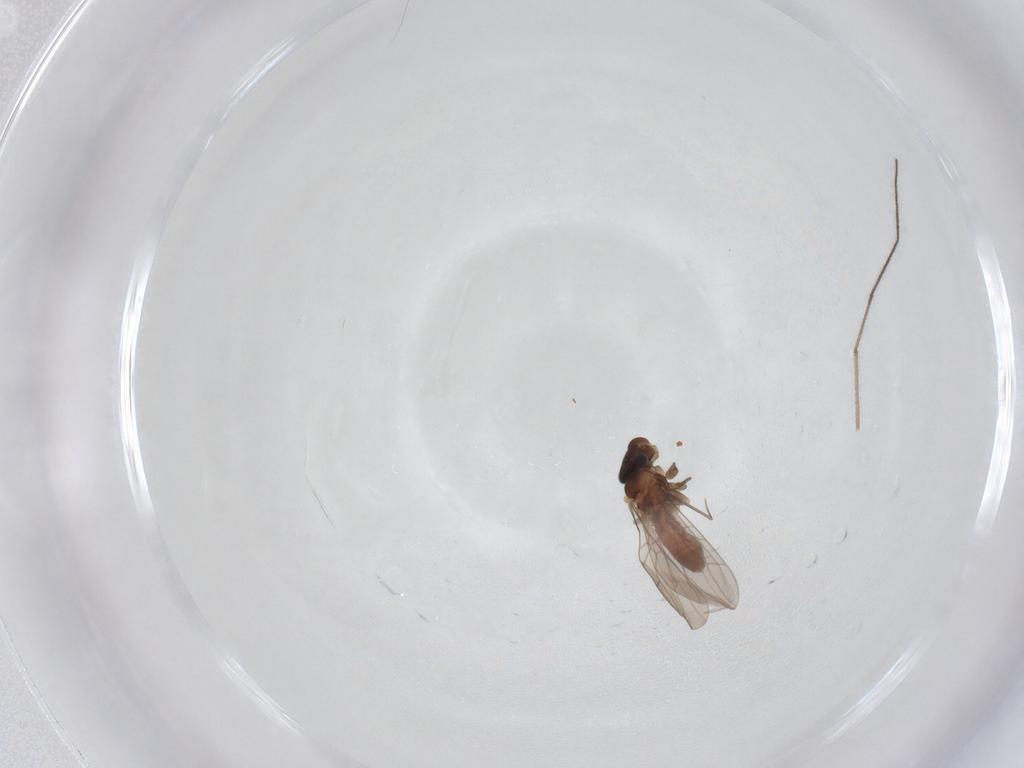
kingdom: Animalia
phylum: Arthropoda
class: Insecta
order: Psocodea
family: Lepidopsocidae
